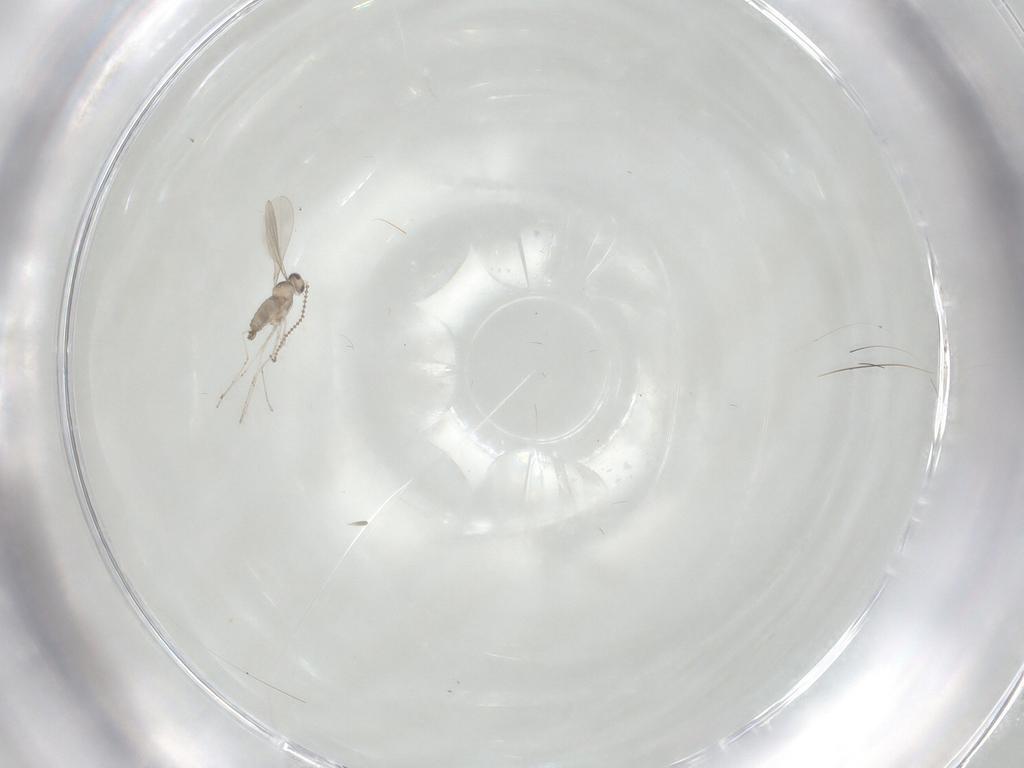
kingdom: Animalia
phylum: Arthropoda
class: Insecta
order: Diptera
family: Cecidomyiidae
